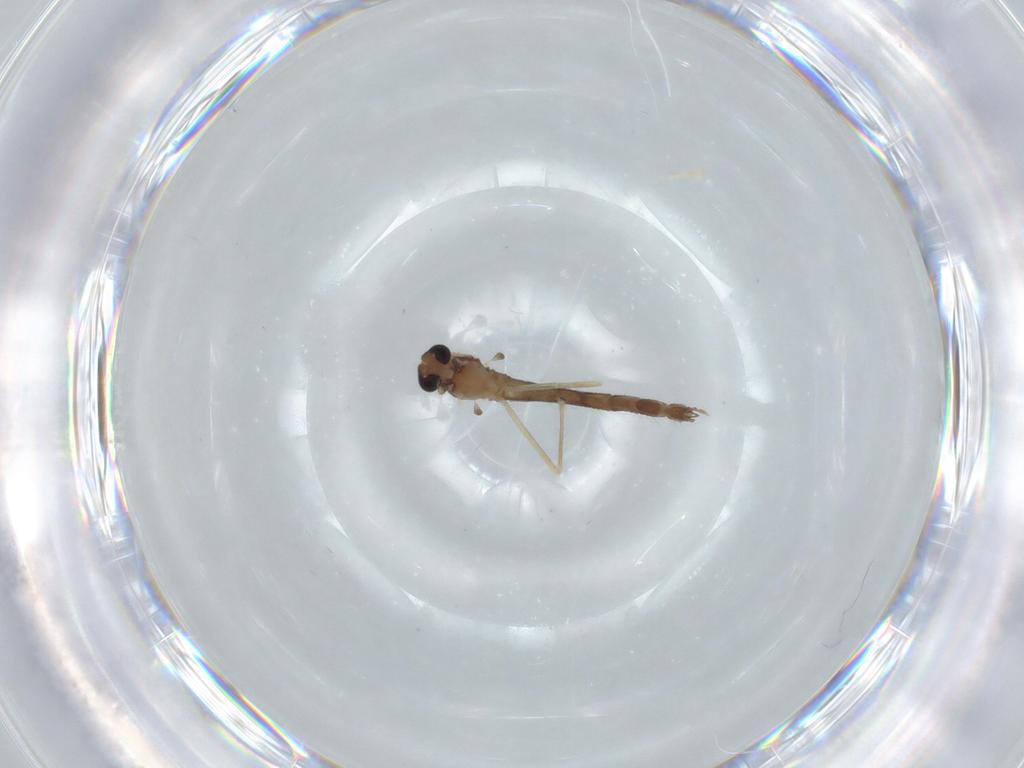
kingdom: Animalia
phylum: Arthropoda
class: Insecta
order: Diptera
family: Chironomidae
